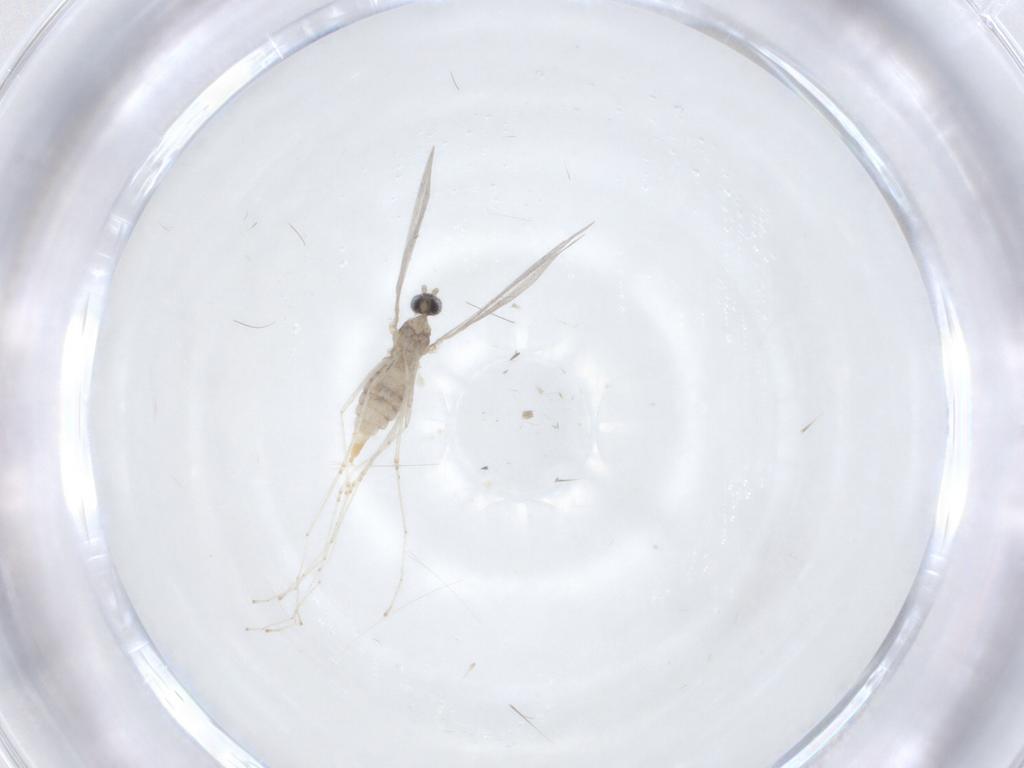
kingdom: Animalia
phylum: Arthropoda
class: Insecta
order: Diptera
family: Cecidomyiidae
